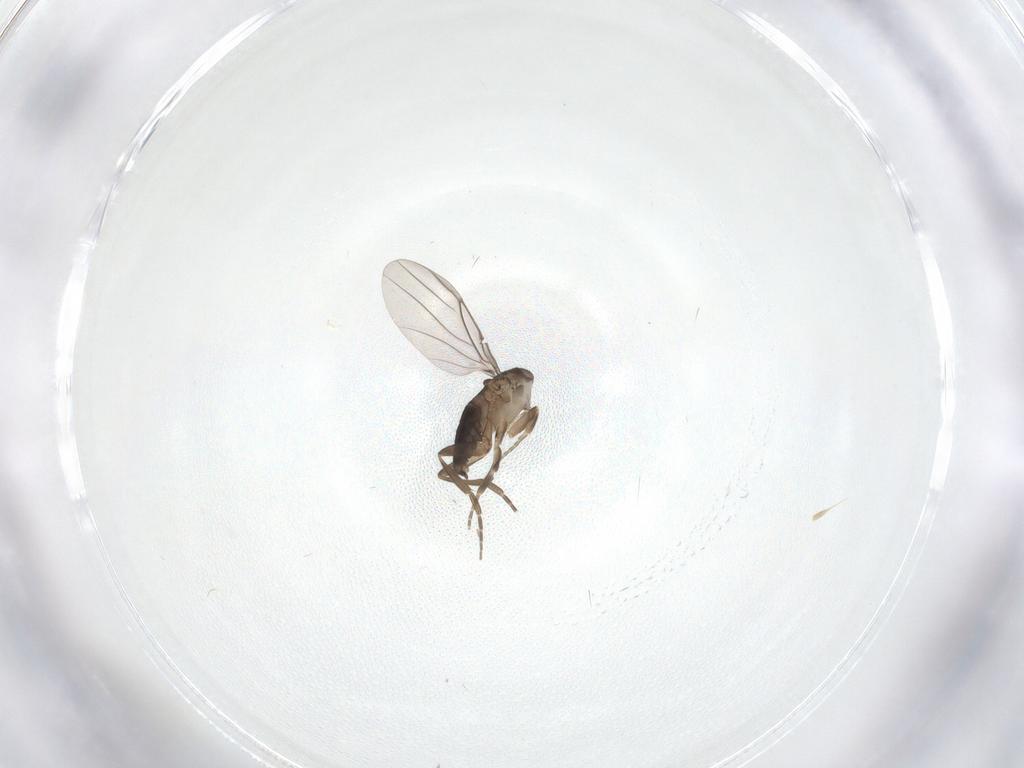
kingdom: Animalia
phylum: Arthropoda
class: Insecta
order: Diptera
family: Phoridae
